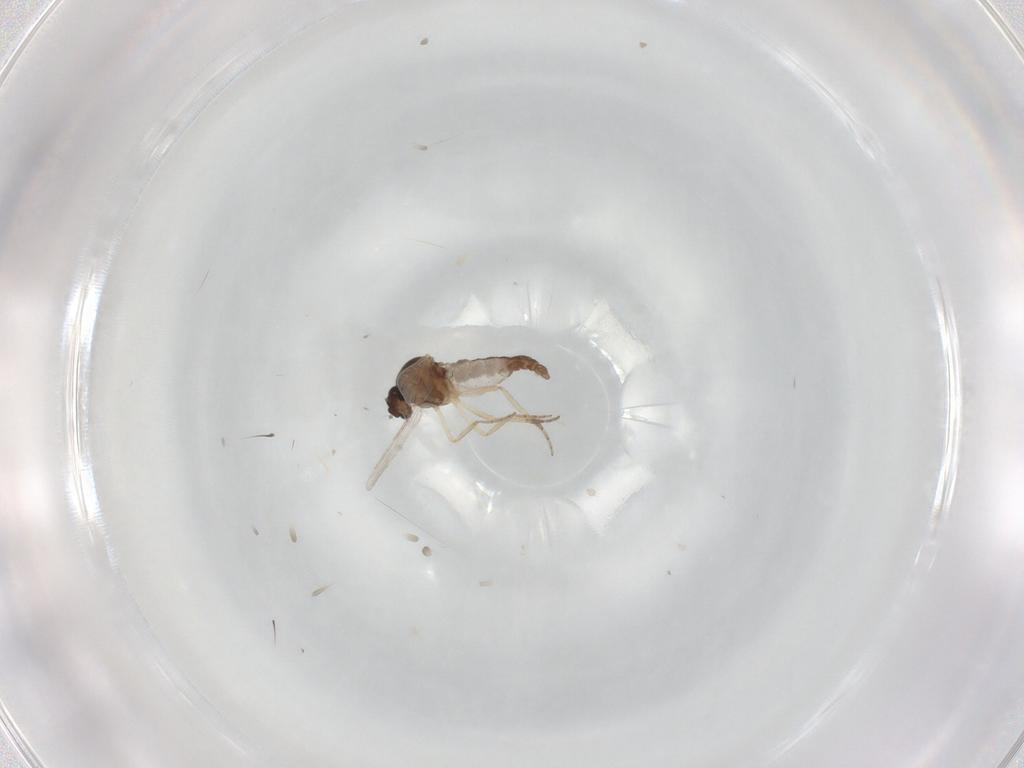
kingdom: Animalia
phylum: Arthropoda
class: Insecta
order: Diptera
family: Ceratopogonidae
